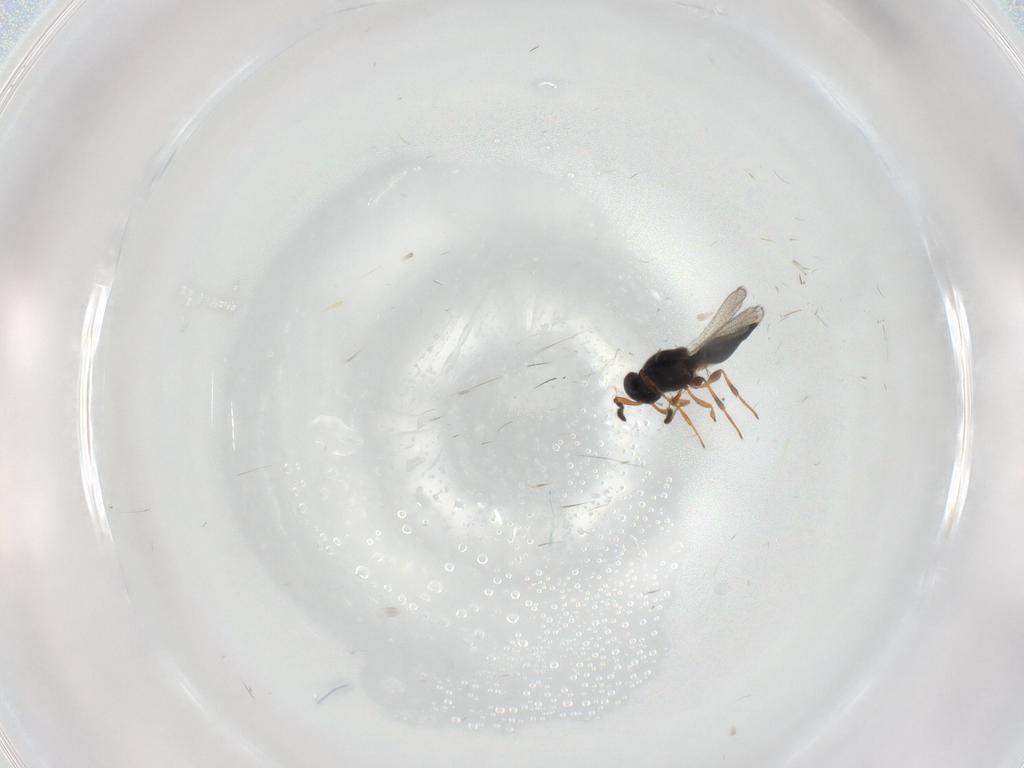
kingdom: Animalia
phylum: Arthropoda
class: Insecta
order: Hymenoptera
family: Platygastridae
